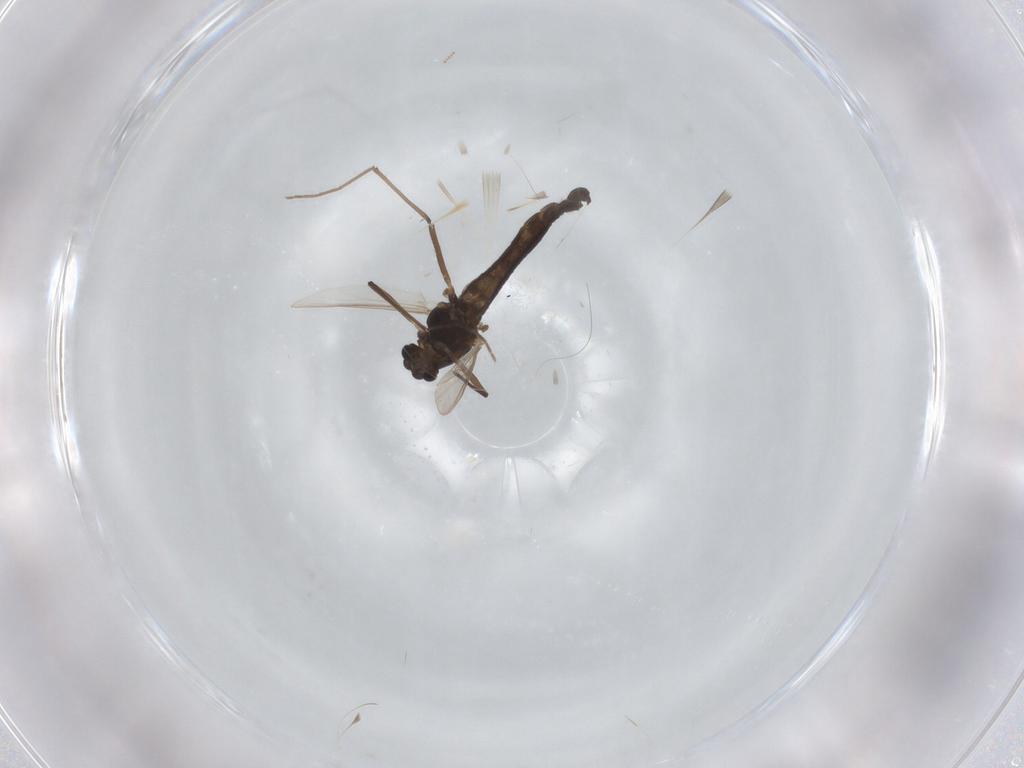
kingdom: Animalia
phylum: Arthropoda
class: Insecta
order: Diptera
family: Chironomidae
